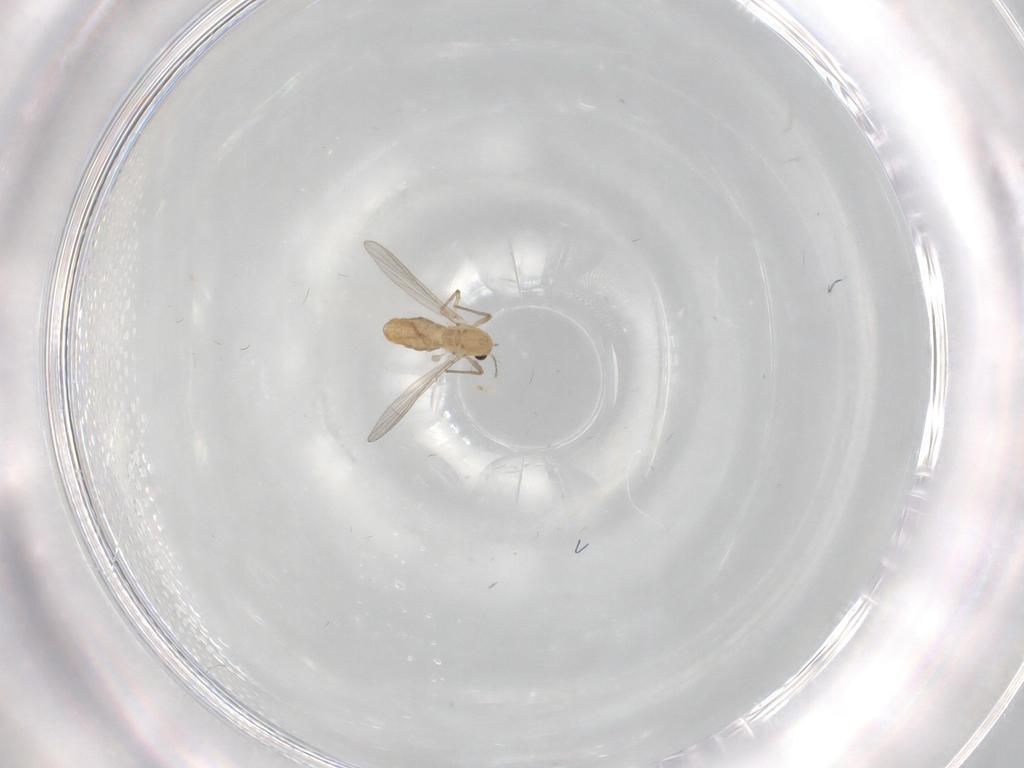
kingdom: Animalia
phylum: Arthropoda
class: Insecta
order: Diptera
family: Chironomidae
